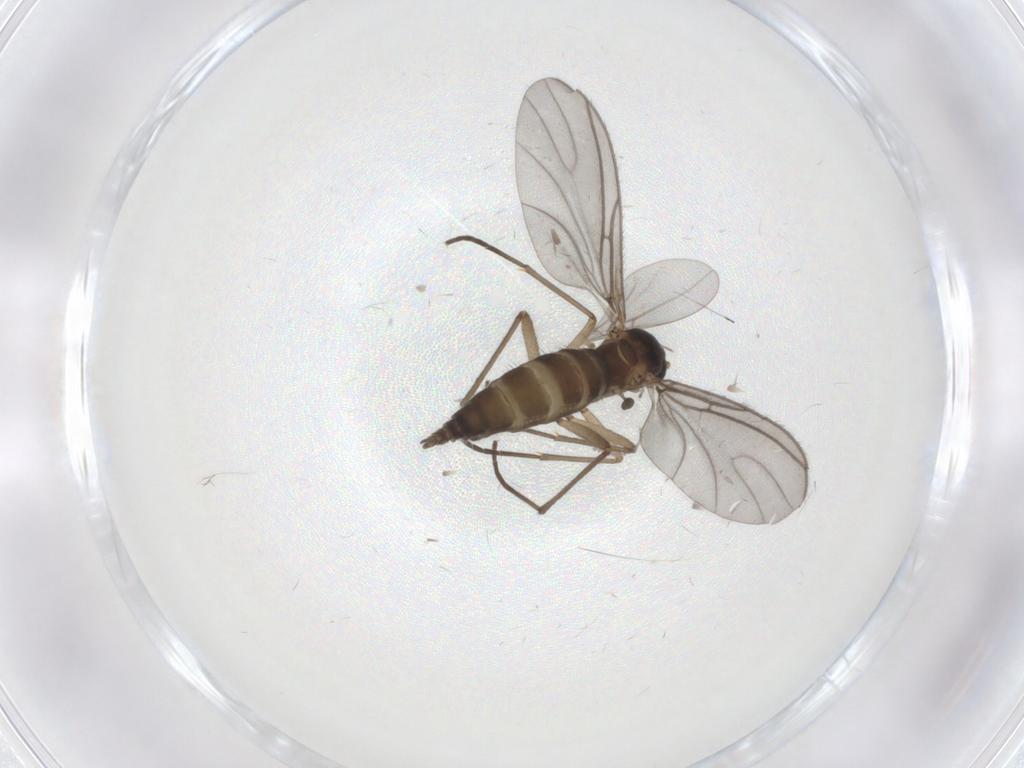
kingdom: Animalia
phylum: Arthropoda
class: Insecta
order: Diptera
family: Cecidomyiidae
